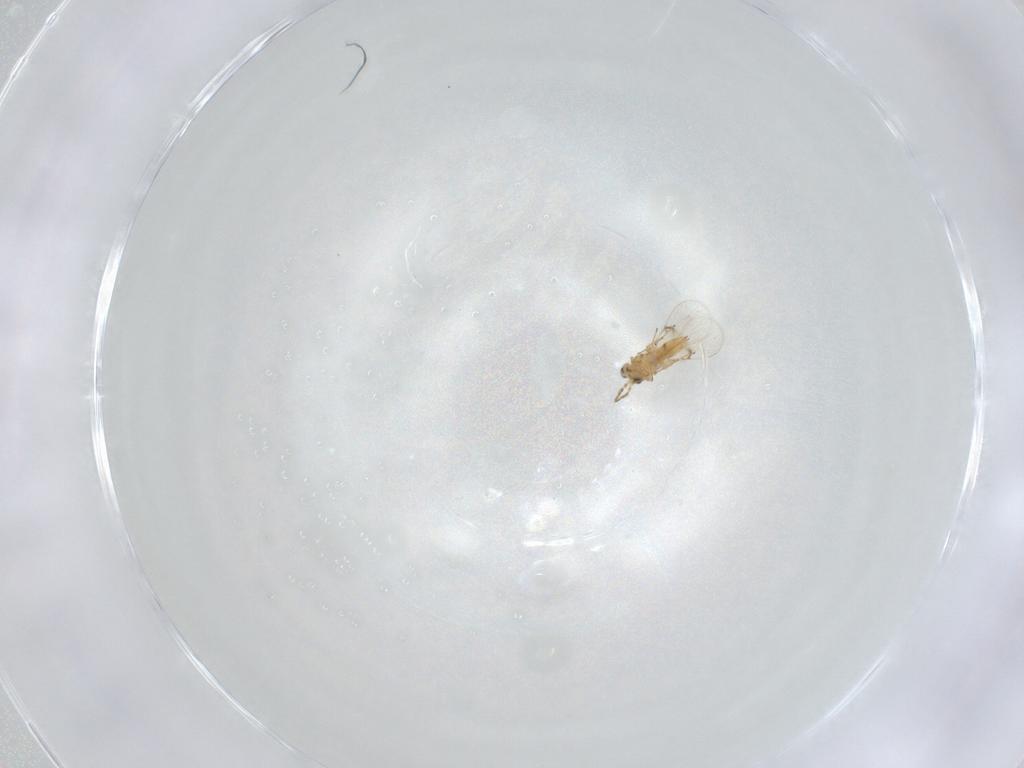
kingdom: Animalia
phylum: Arthropoda
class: Insecta
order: Hymenoptera
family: Trichogrammatidae
